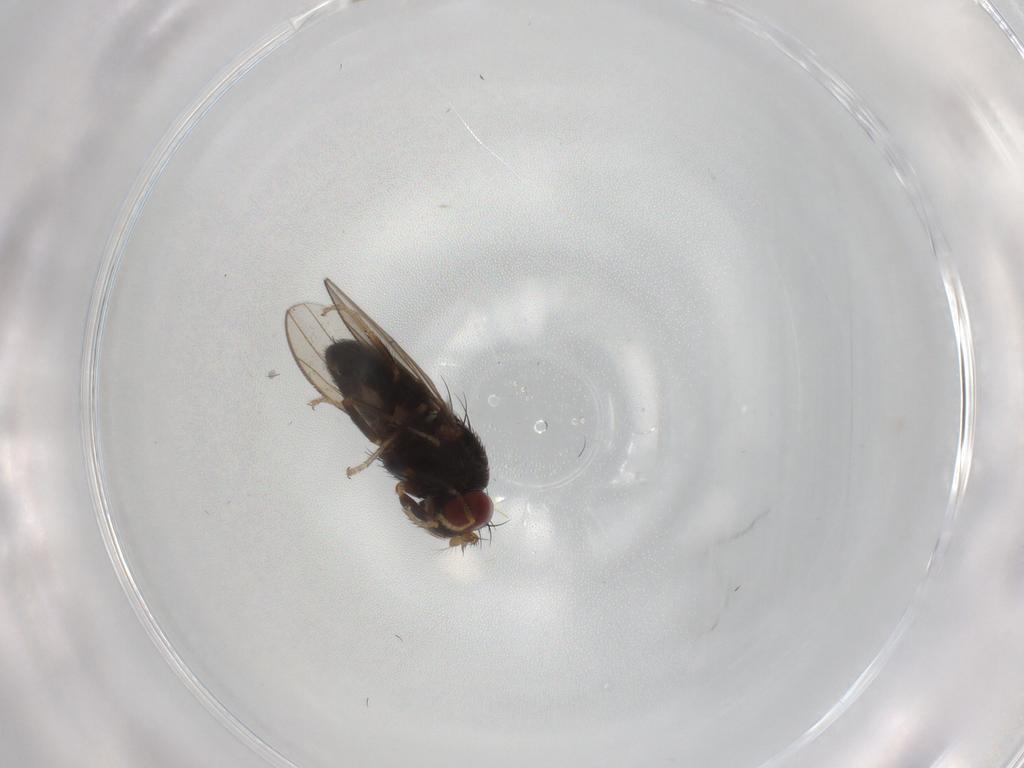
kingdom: Animalia
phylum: Arthropoda
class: Insecta
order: Diptera
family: Ephydridae
